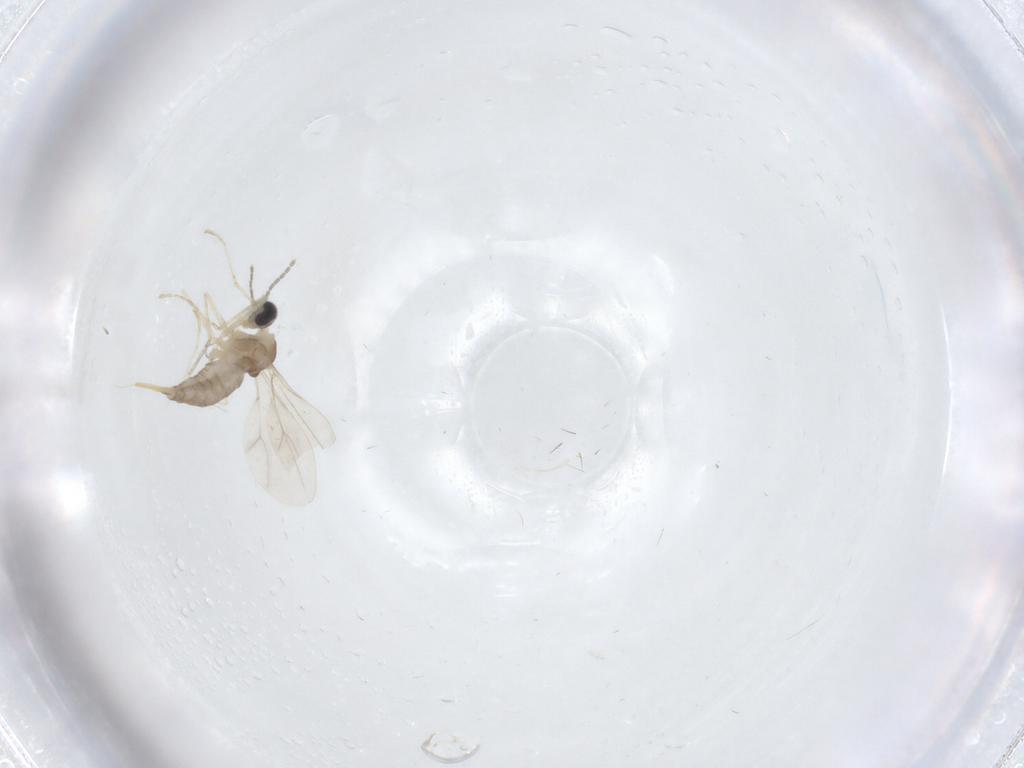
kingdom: Animalia
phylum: Arthropoda
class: Insecta
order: Diptera
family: Cecidomyiidae
